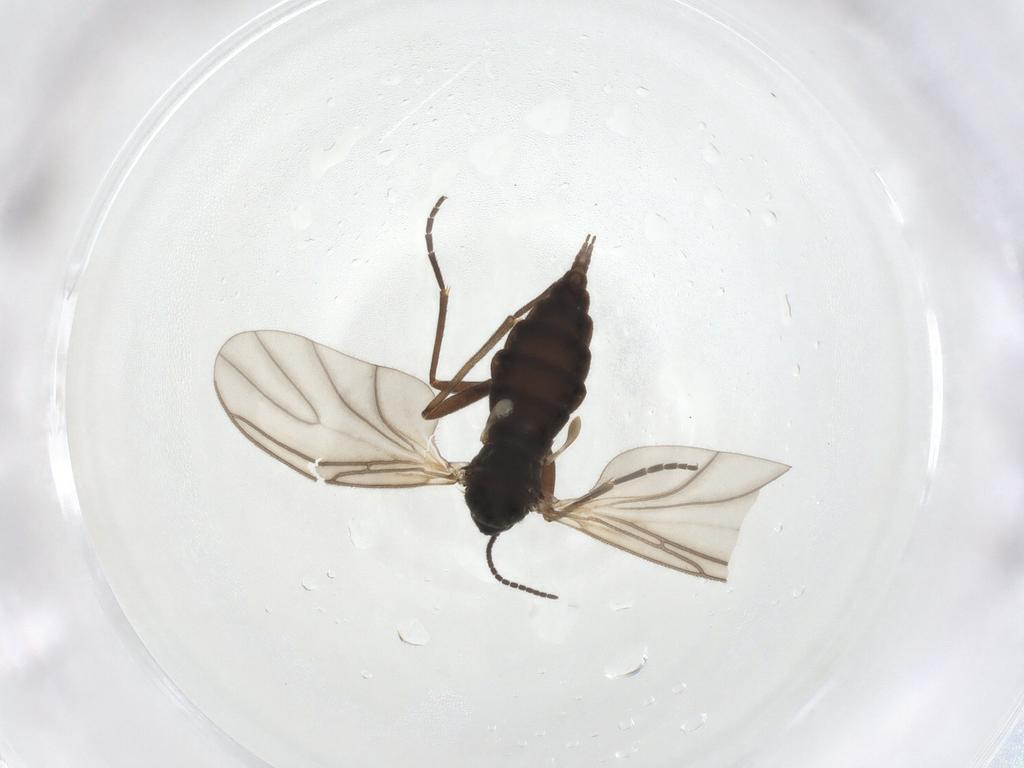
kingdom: Animalia
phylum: Arthropoda
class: Insecta
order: Diptera
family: Sciaridae
